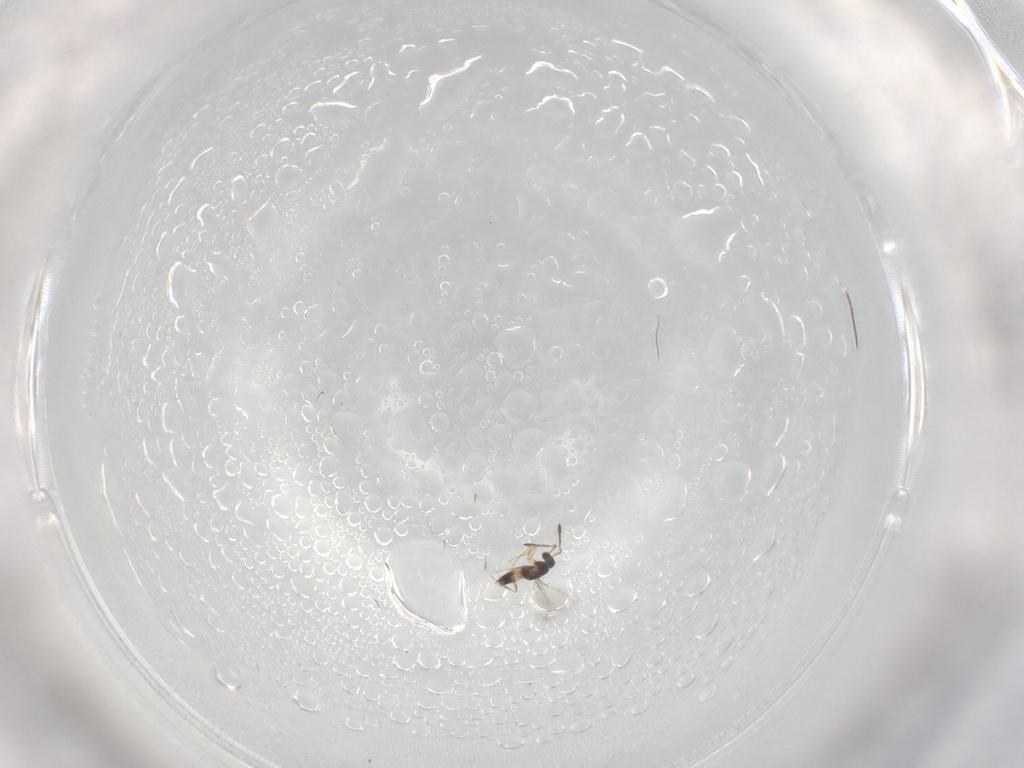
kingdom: Animalia
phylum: Arthropoda
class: Insecta
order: Hymenoptera
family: Mymaridae
